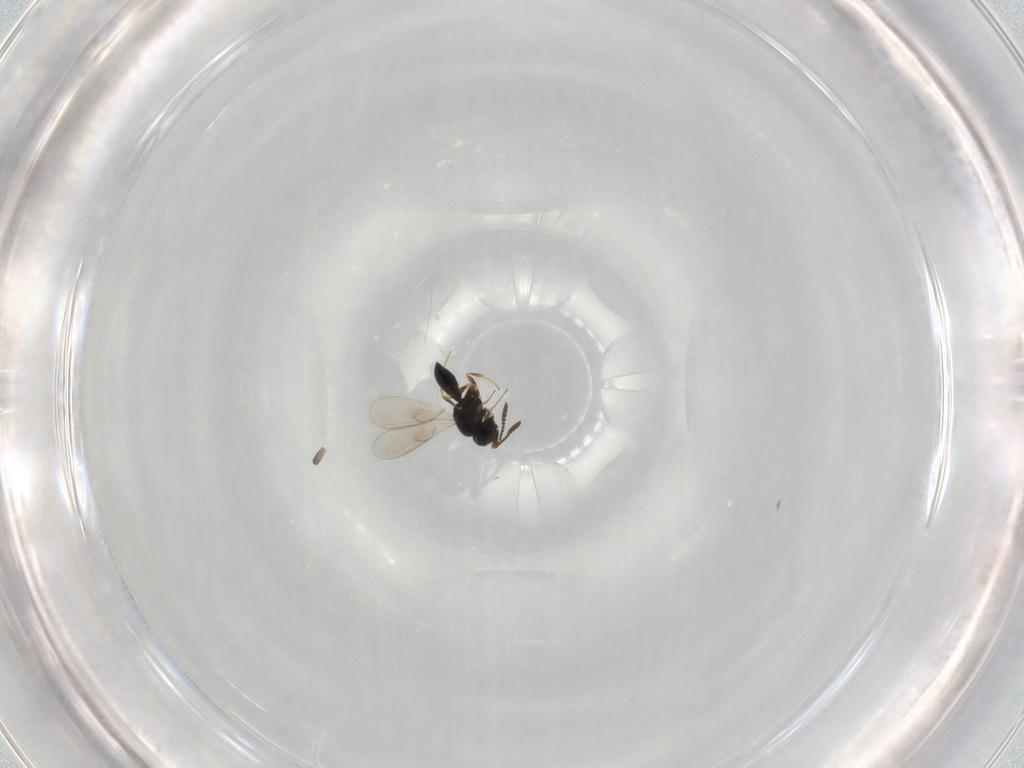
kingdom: Animalia
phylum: Arthropoda
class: Insecta
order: Hymenoptera
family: Scelionidae
